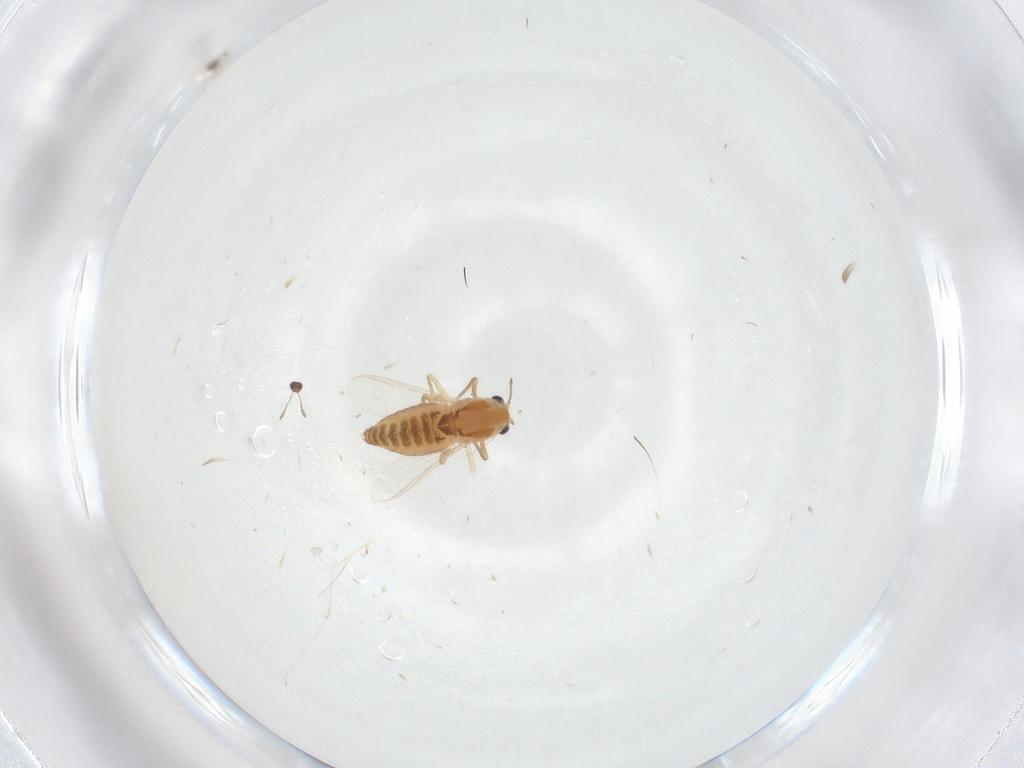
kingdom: Animalia
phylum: Arthropoda
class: Insecta
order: Diptera
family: Chironomidae
